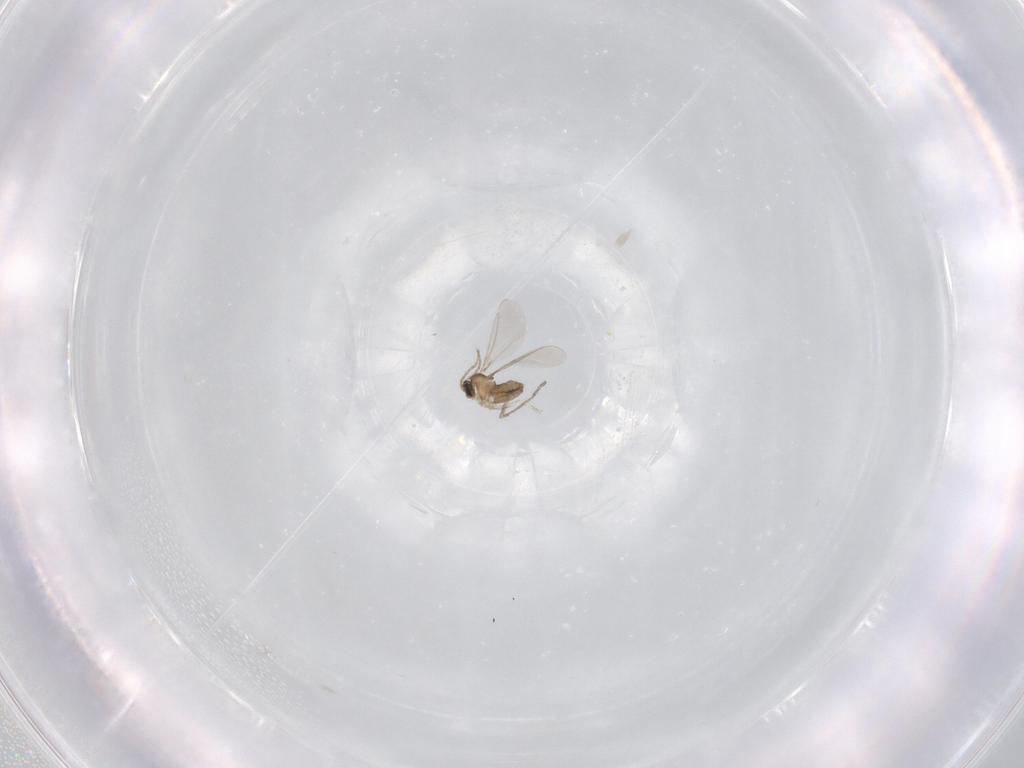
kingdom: Animalia
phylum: Arthropoda
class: Insecta
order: Diptera
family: Cecidomyiidae
